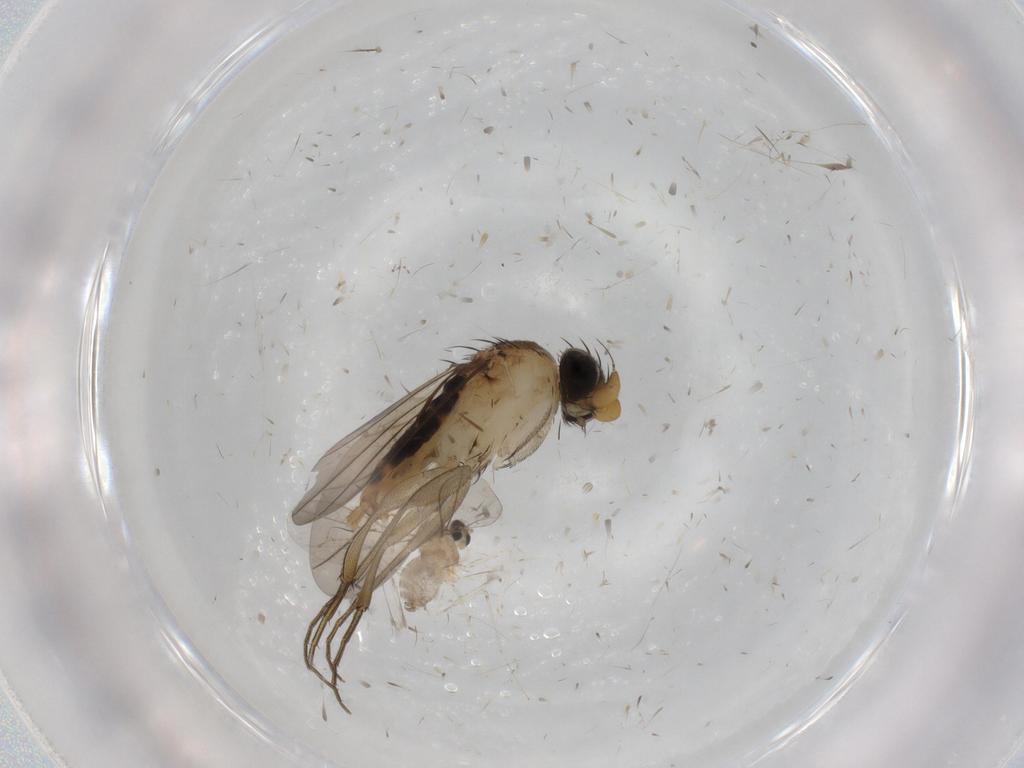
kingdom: Animalia
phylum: Arthropoda
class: Insecta
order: Diptera
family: Cecidomyiidae
